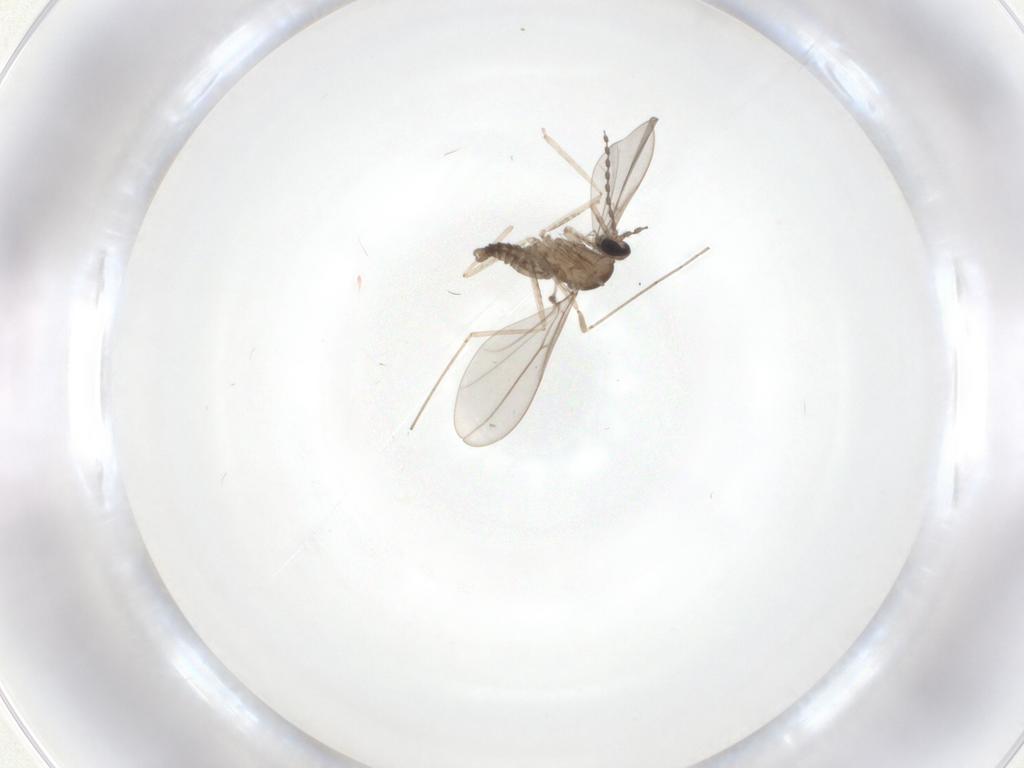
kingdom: Animalia
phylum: Arthropoda
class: Insecta
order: Diptera
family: Cecidomyiidae
